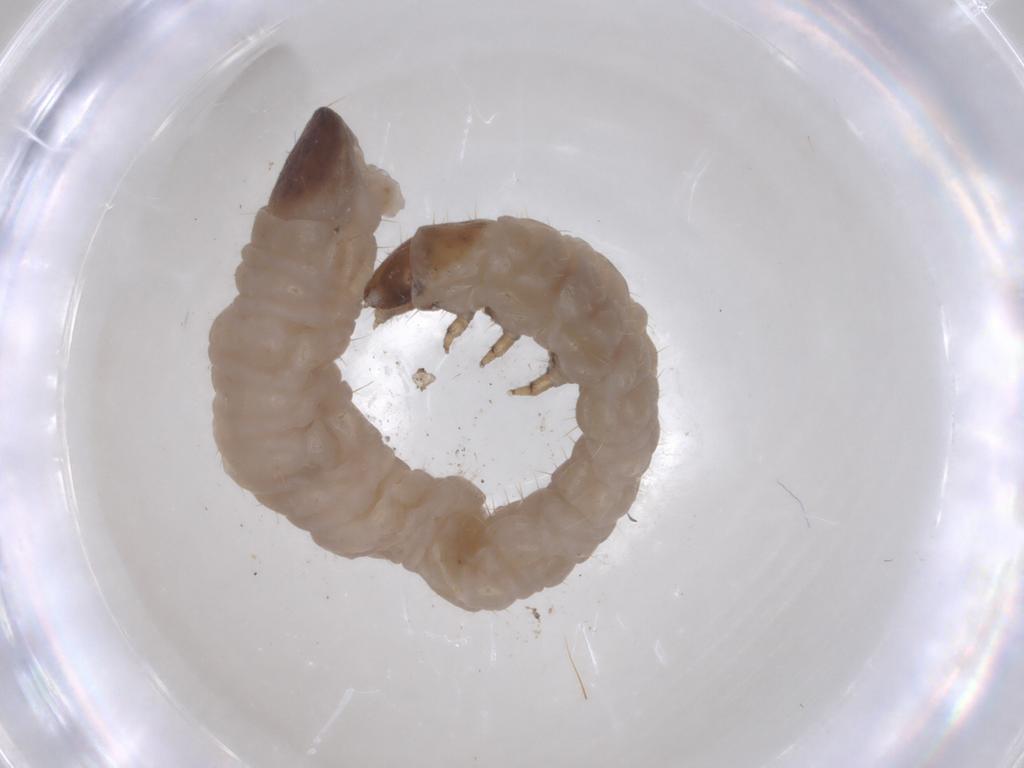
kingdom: Animalia
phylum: Arthropoda
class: Insecta
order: Coleoptera
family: Chrysomelidae
